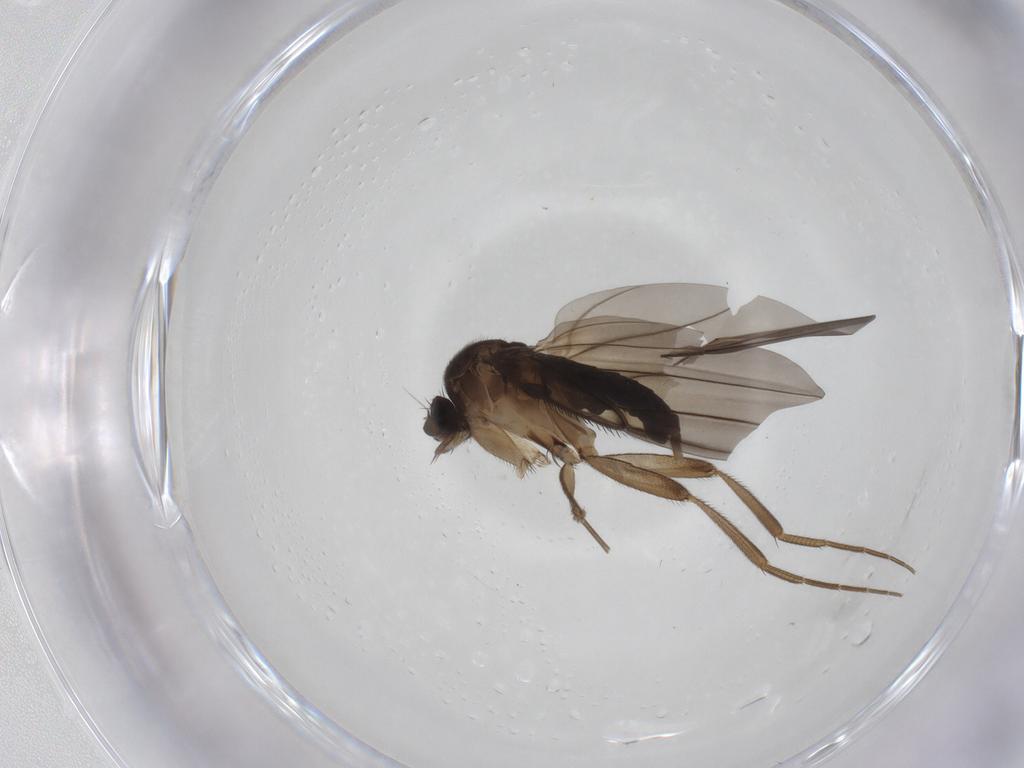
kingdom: Animalia
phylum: Arthropoda
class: Insecta
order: Diptera
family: Phoridae
